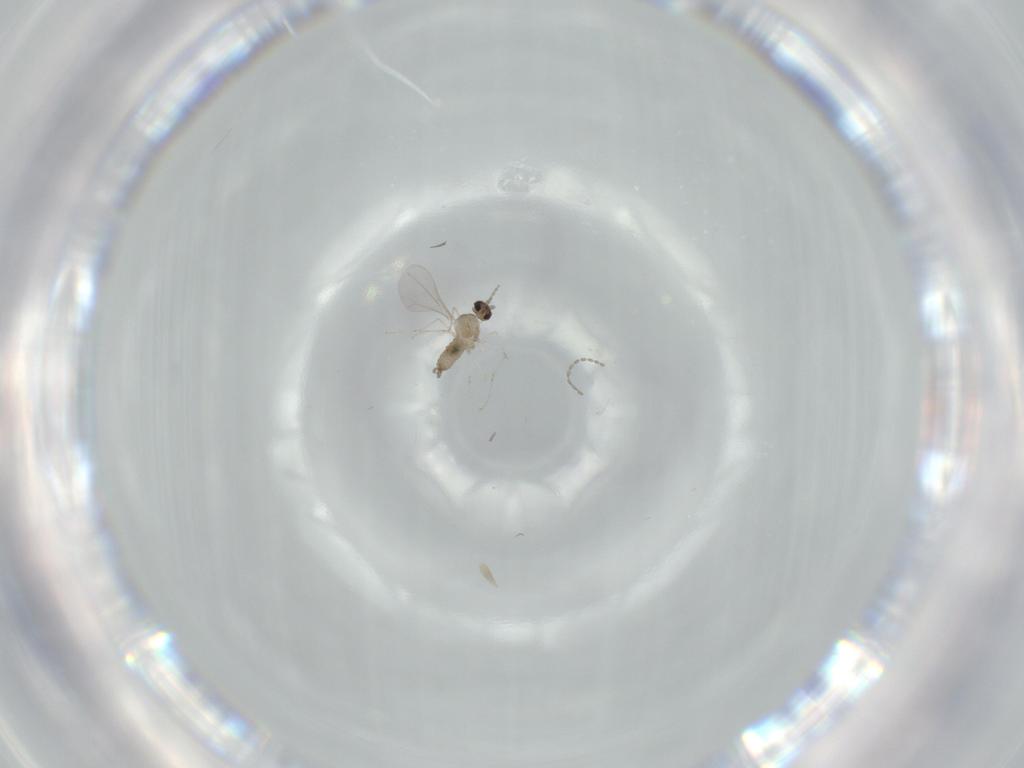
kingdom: Animalia
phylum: Arthropoda
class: Insecta
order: Diptera
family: Cecidomyiidae
